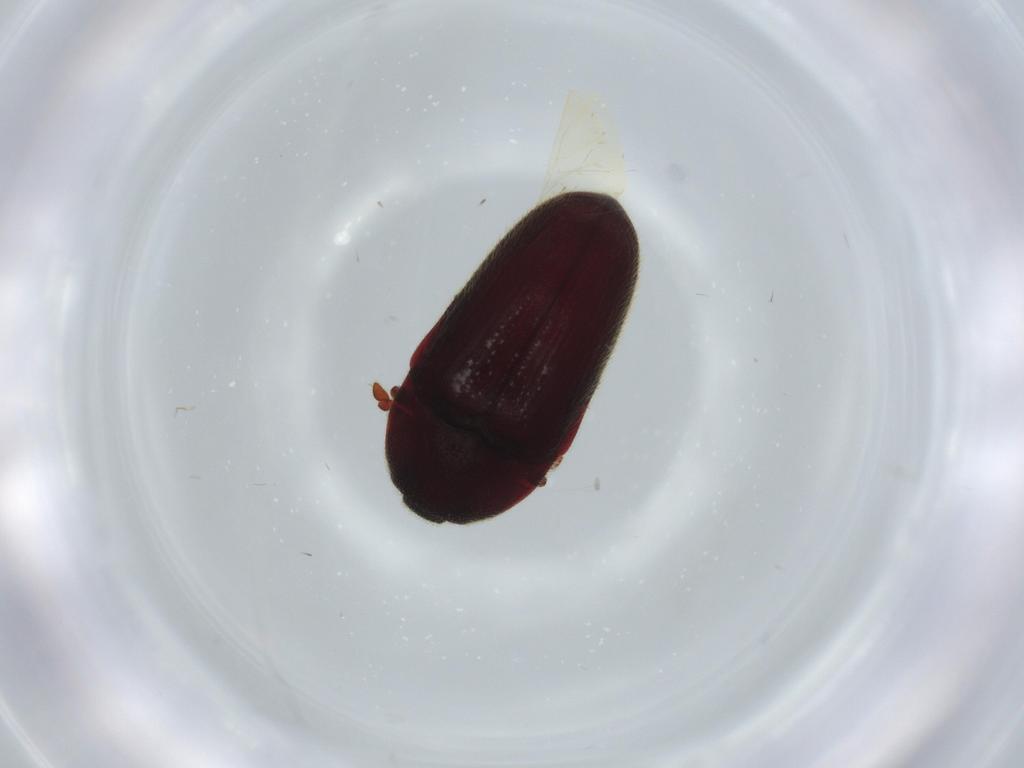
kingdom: Animalia
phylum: Arthropoda
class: Insecta
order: Coleoptera
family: Throscidae
